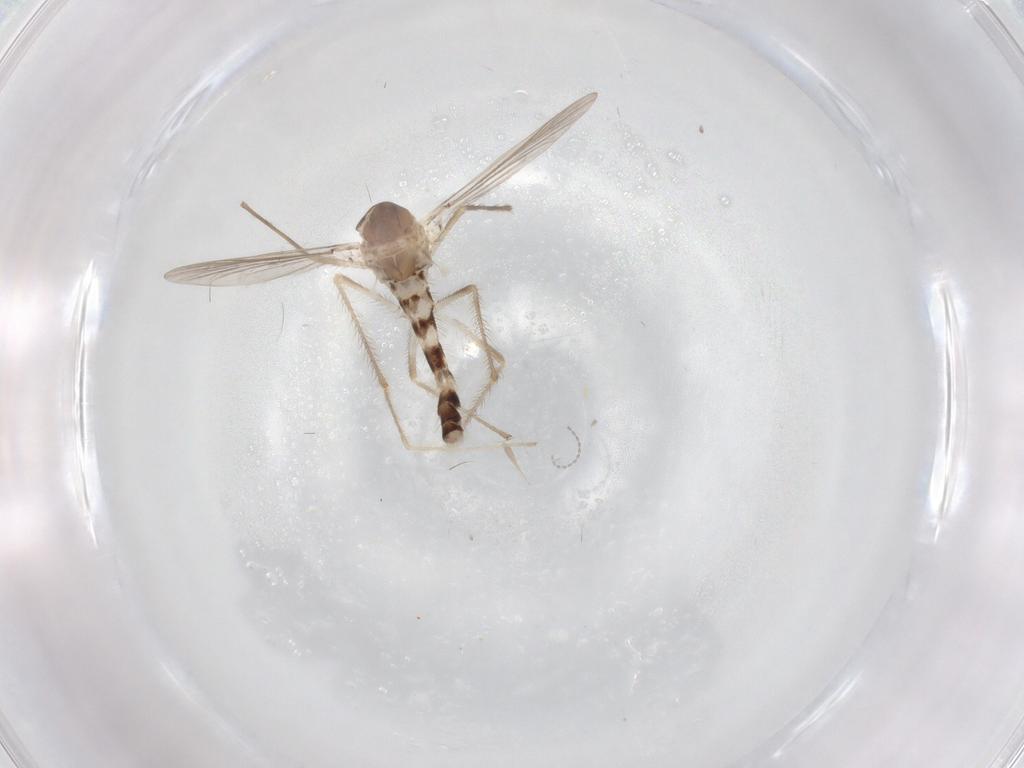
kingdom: Animalia
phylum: Arthropoda
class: Insecta
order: Diptera
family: Chironomidae
